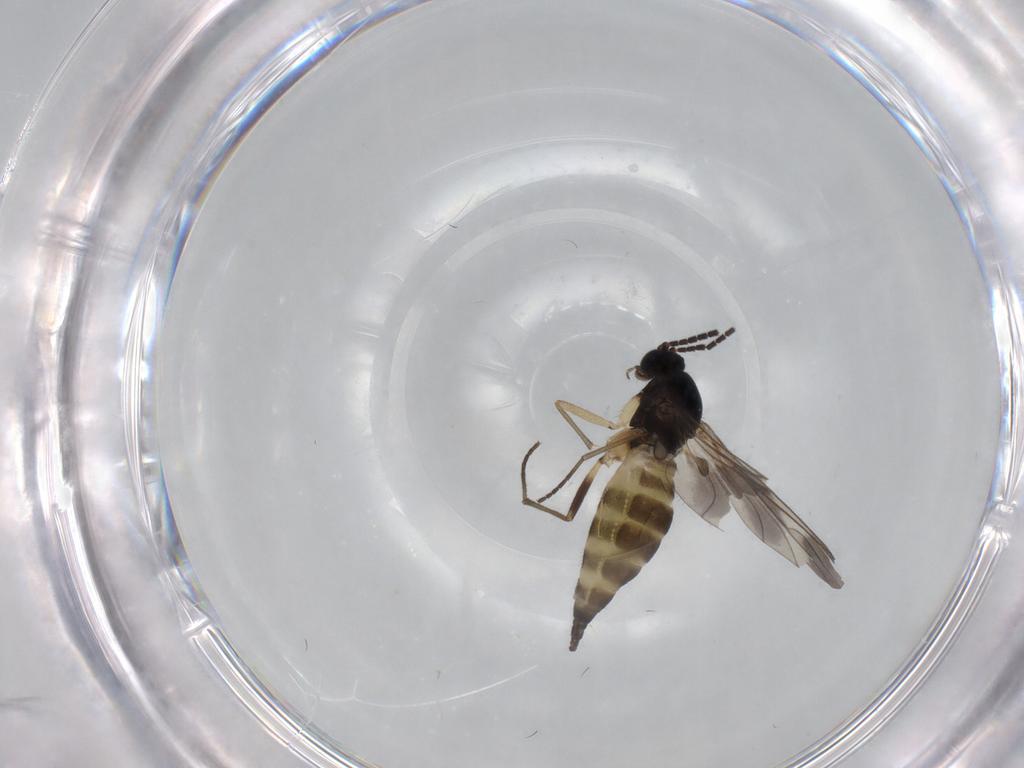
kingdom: Animalia
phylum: Arthropoda
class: Insecta
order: Diptera
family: Sciaridae
